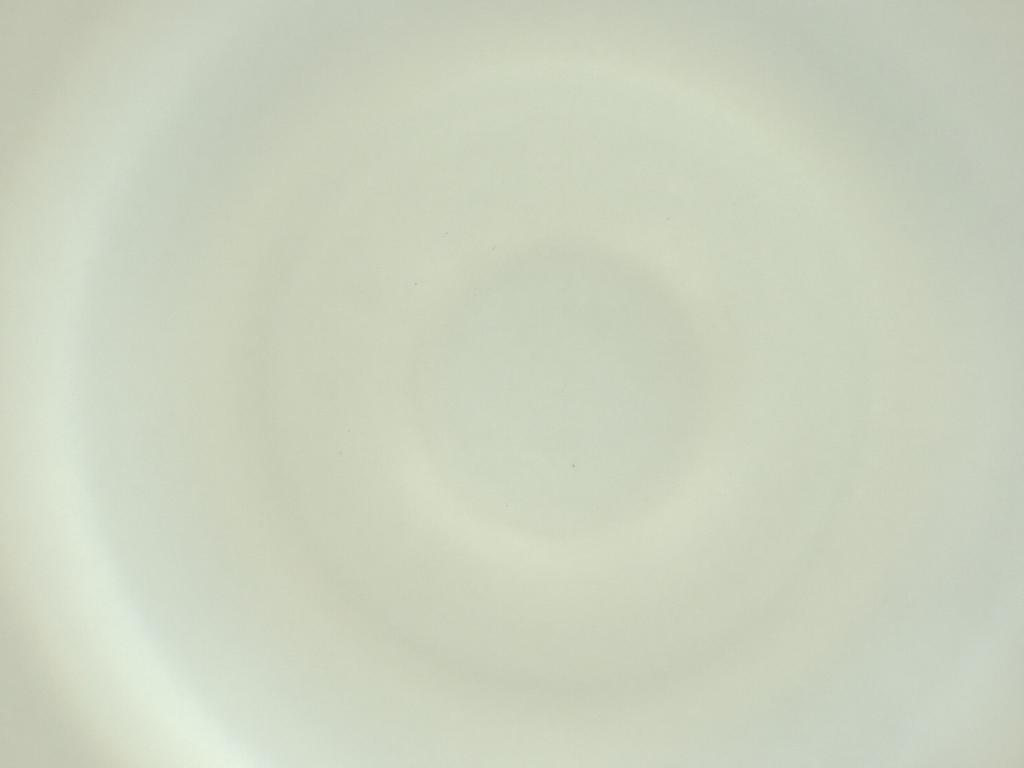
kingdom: Animalia
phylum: Arthropoda
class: Insecta
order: Diptera
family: Cecidomyiidae
